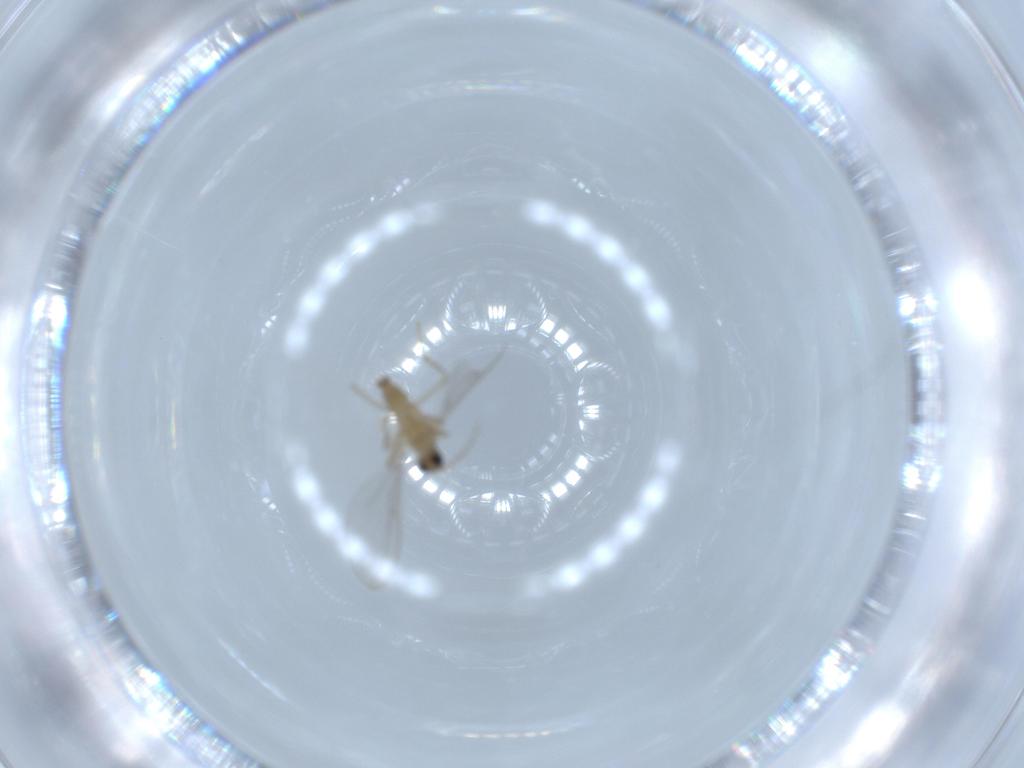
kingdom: Animalia
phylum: Arthropoda
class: Insecta
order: Diptera
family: Cecidomyiidae
